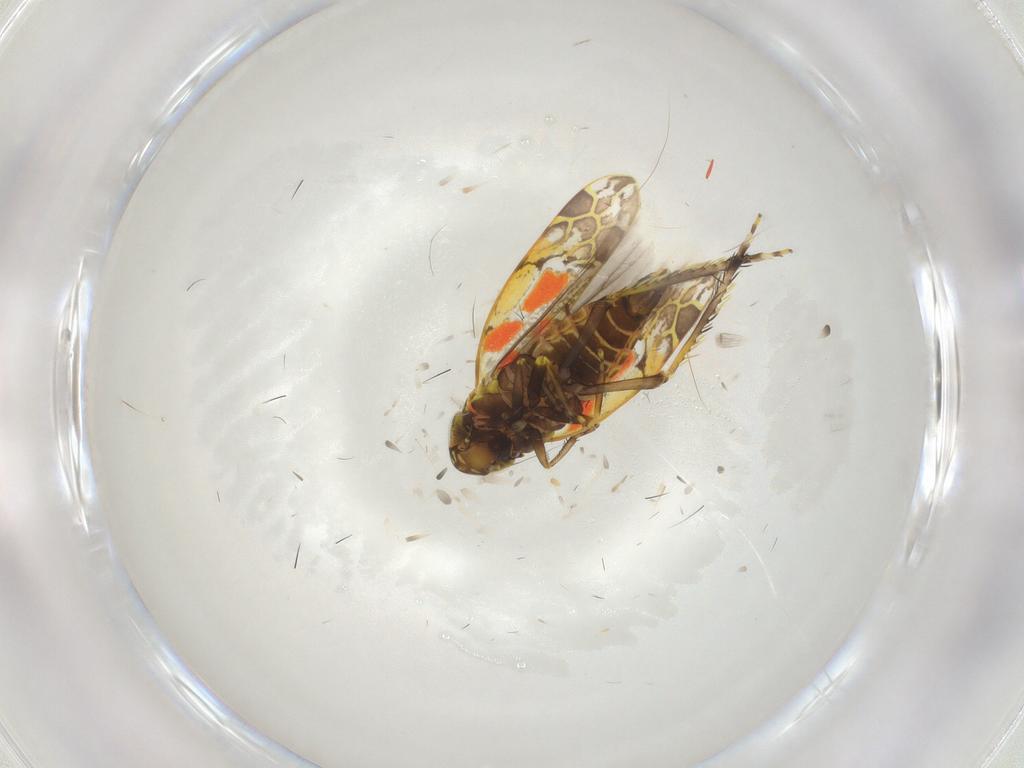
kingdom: Animalia
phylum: Arthropoda
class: Insecta
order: Hemiptera
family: Cicadellidae
